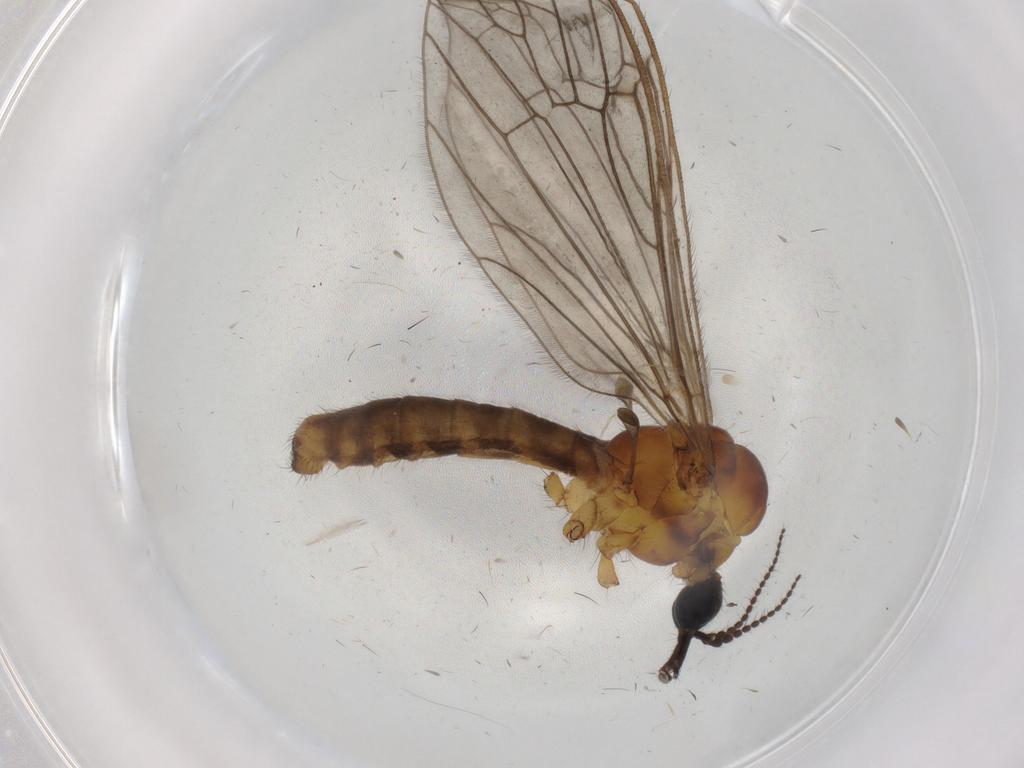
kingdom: Animalia
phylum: Arthropoda
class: Insecta
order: Diptera
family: Limoniidae
